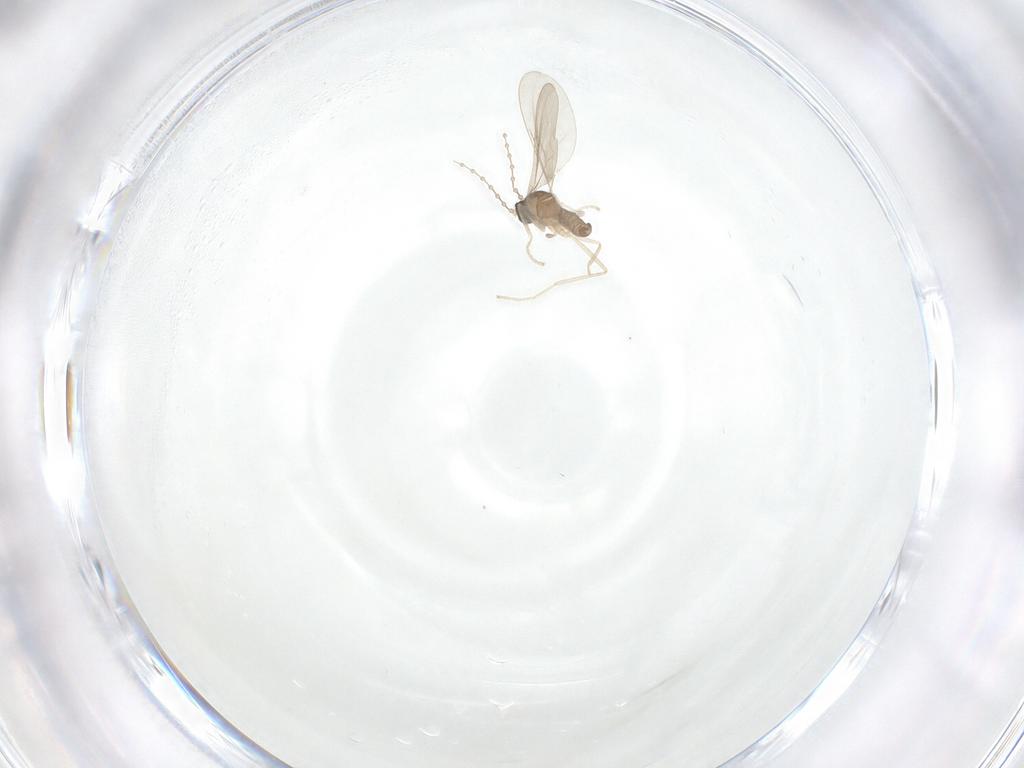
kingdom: Animalia
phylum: Arthropoda
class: Insecta
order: Diptera
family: Cecidomyiidae
